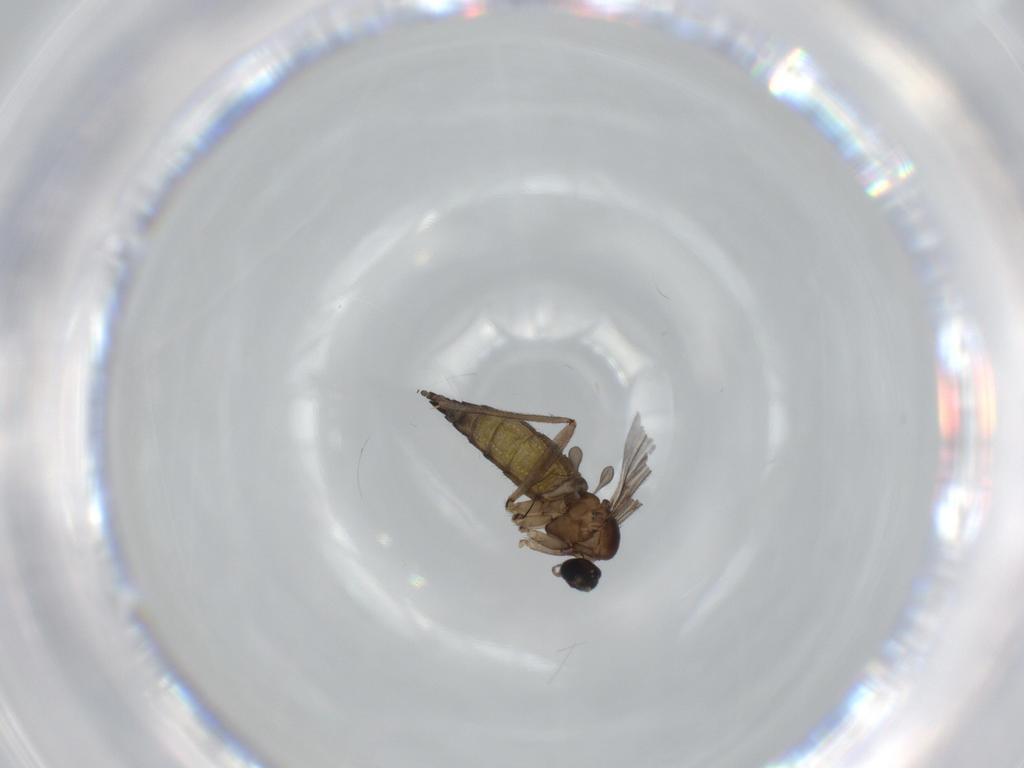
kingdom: Animalia
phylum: Arthropoda
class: Insecta
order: Diptera
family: Sciaridae
